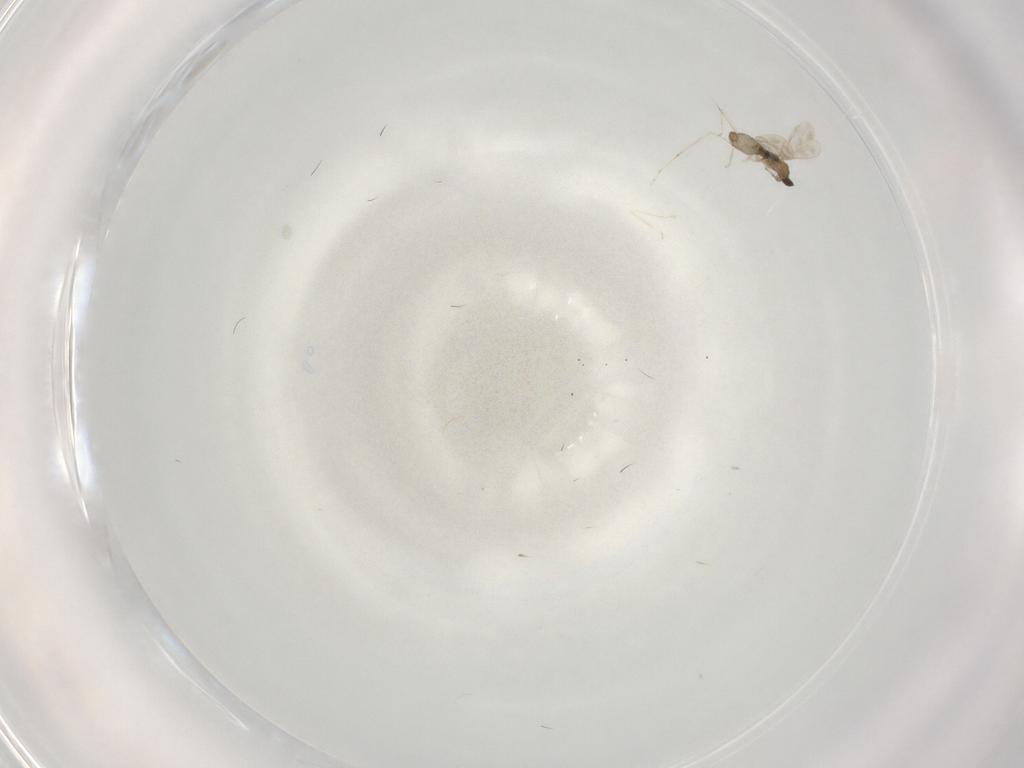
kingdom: Animalia
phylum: Arthropoda
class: Insecta
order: Diptera
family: Cecidomyiidae
